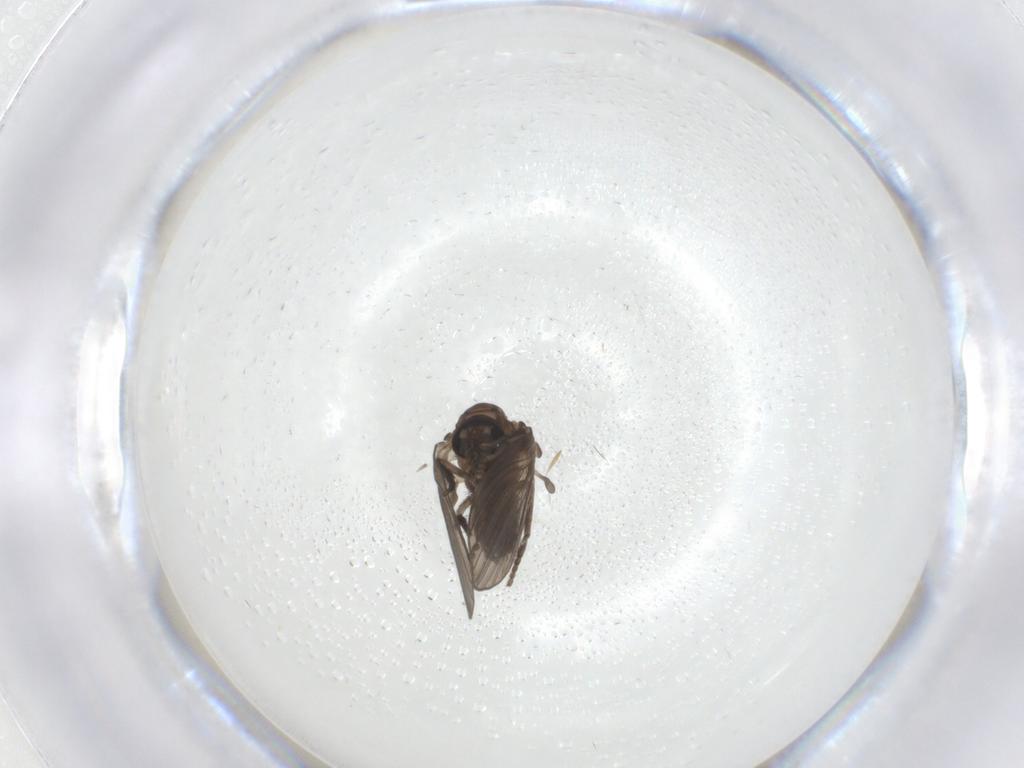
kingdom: Animalia
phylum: Arthropoda
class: Insecta
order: Diptera
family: Psychodidae
